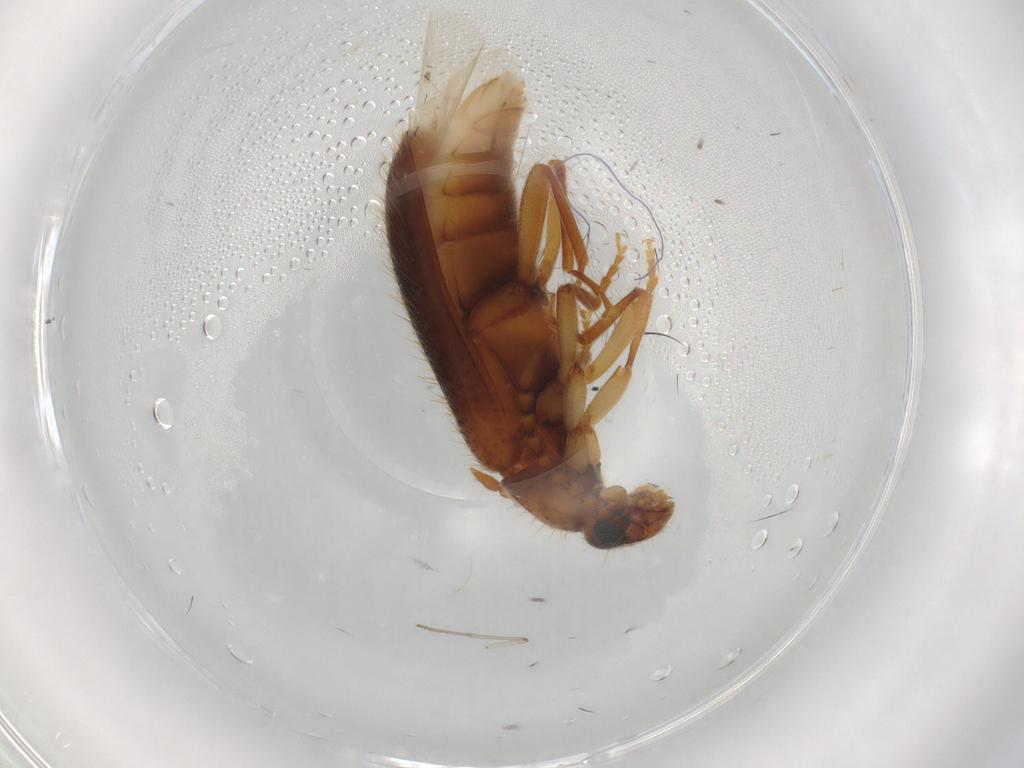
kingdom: Animalia
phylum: Arthropoda
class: Insecta
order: Coleoptera
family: Anthicidae
